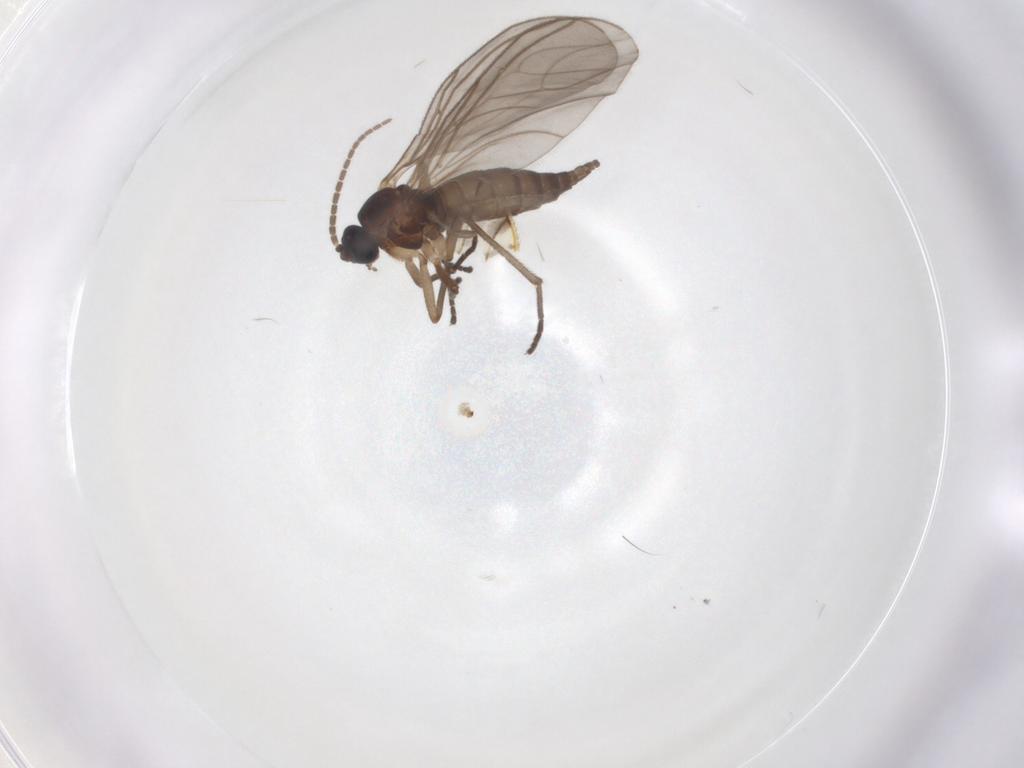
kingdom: Animalia
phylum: Arthropoda
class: Insecta
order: Diptera
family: Sciaridae
